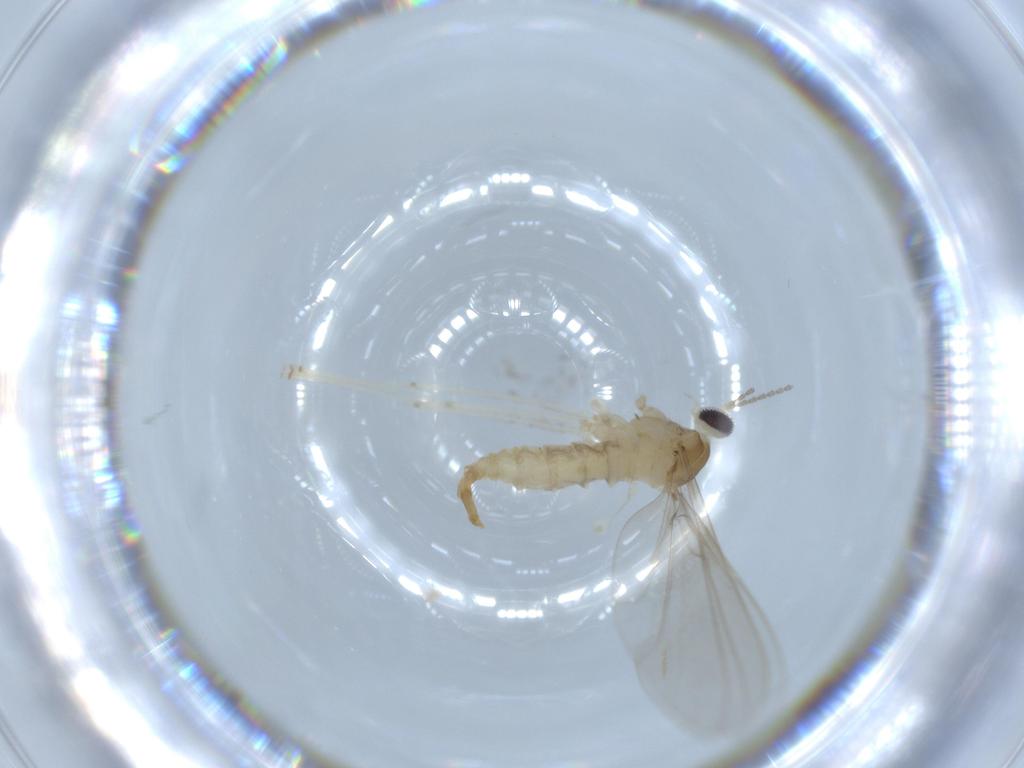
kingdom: Animalia
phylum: Arthropoda
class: Insecta
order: Diptera
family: Cecidomyiidae
